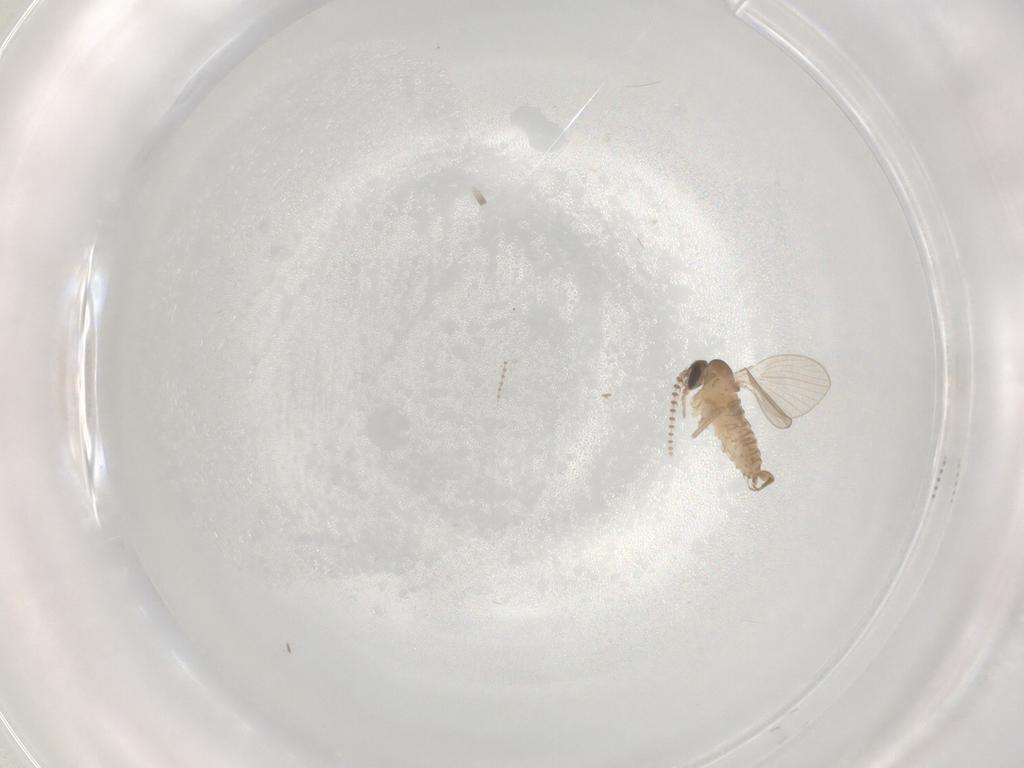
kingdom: Animalia
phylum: Arthropoda
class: Insecta
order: Diptera
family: Psychodidae
